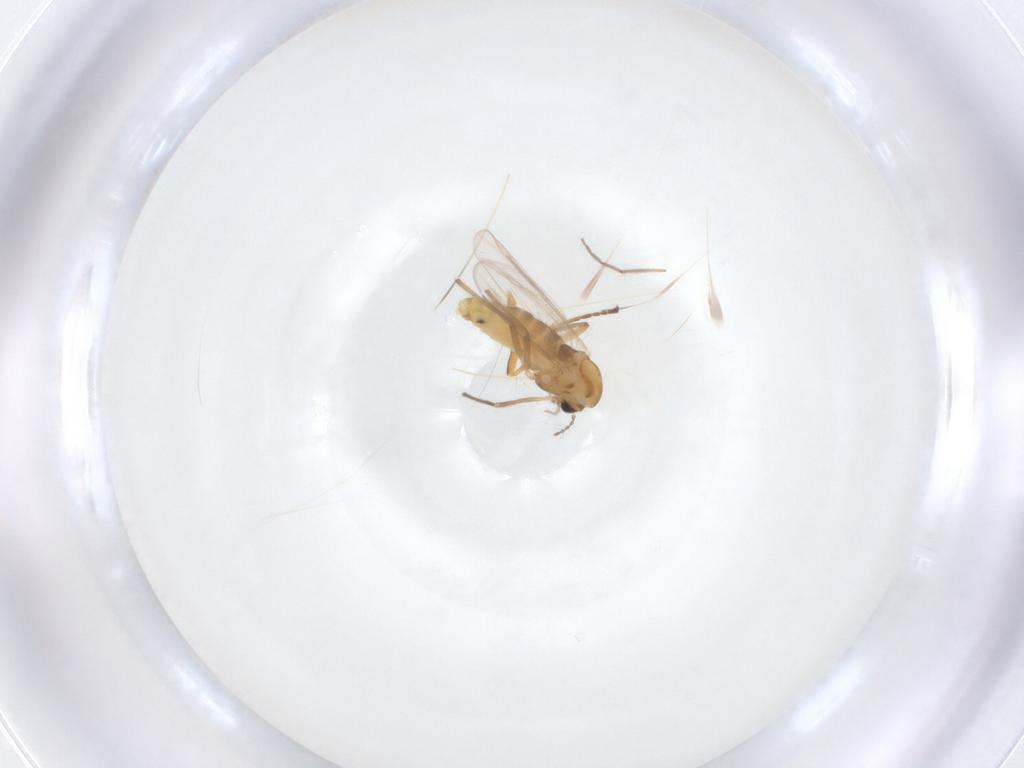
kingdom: Animalia
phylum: Arthropoda
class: Insecta
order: Diptera
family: Chironomidae
